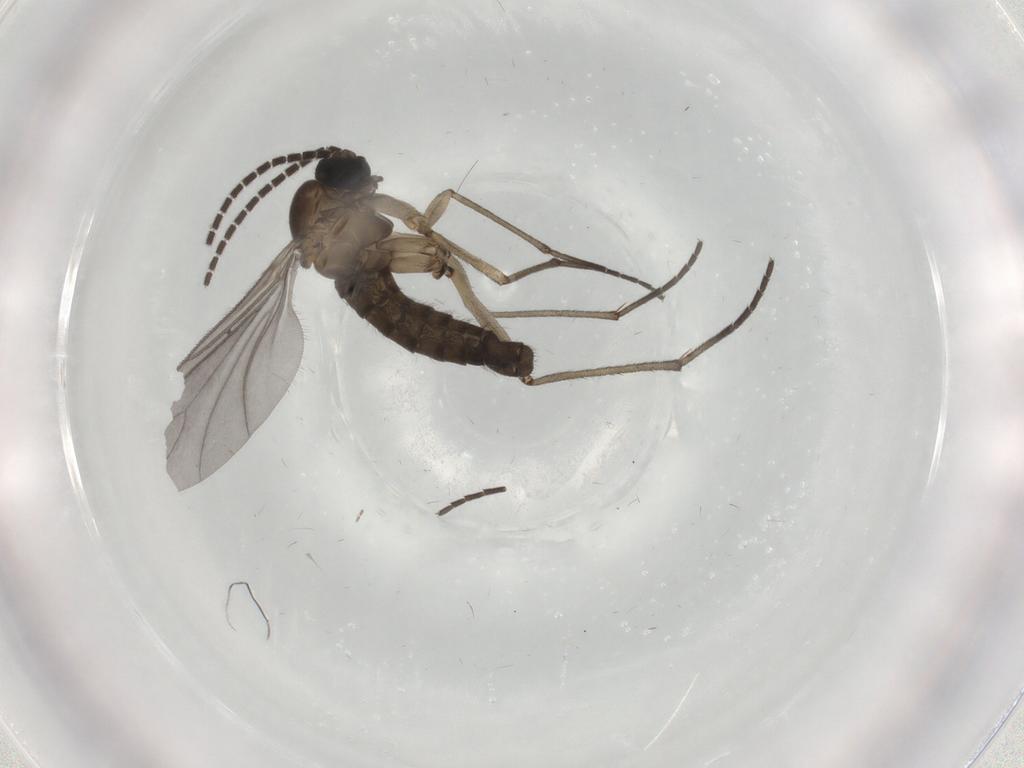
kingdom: Animalia
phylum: Arthropoda
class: Insecta
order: Diptera
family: Sciaridae
